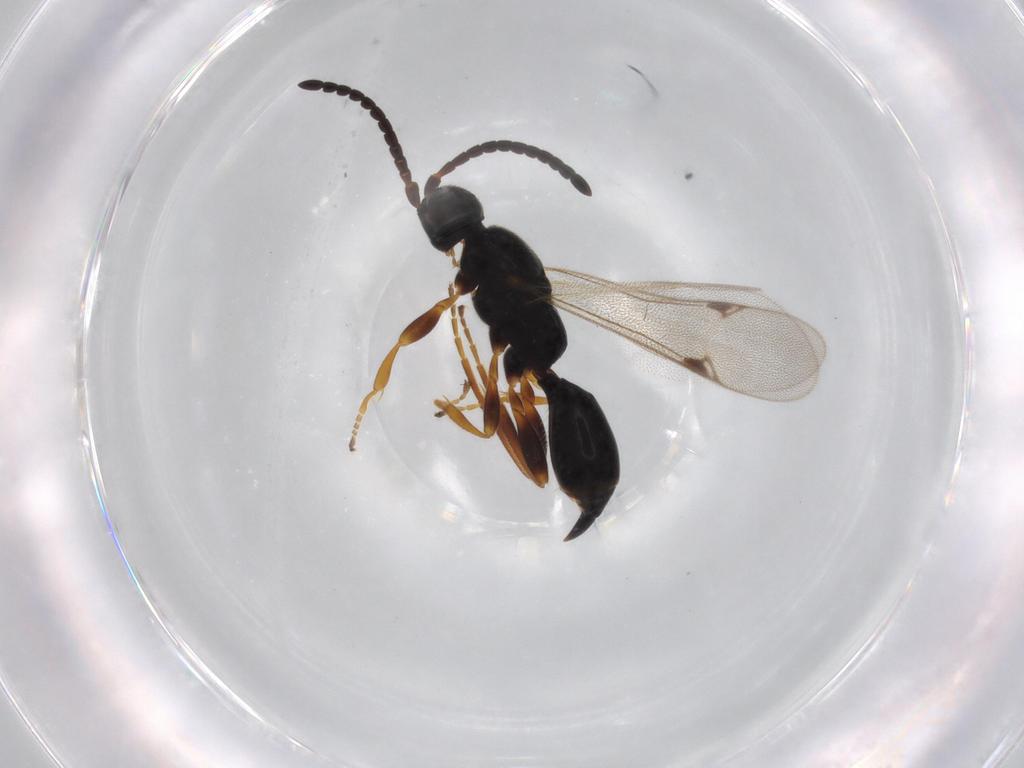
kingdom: Animalia
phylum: Arthropoda
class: Insecta
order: Hymenoptera
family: Proctotrupidae
